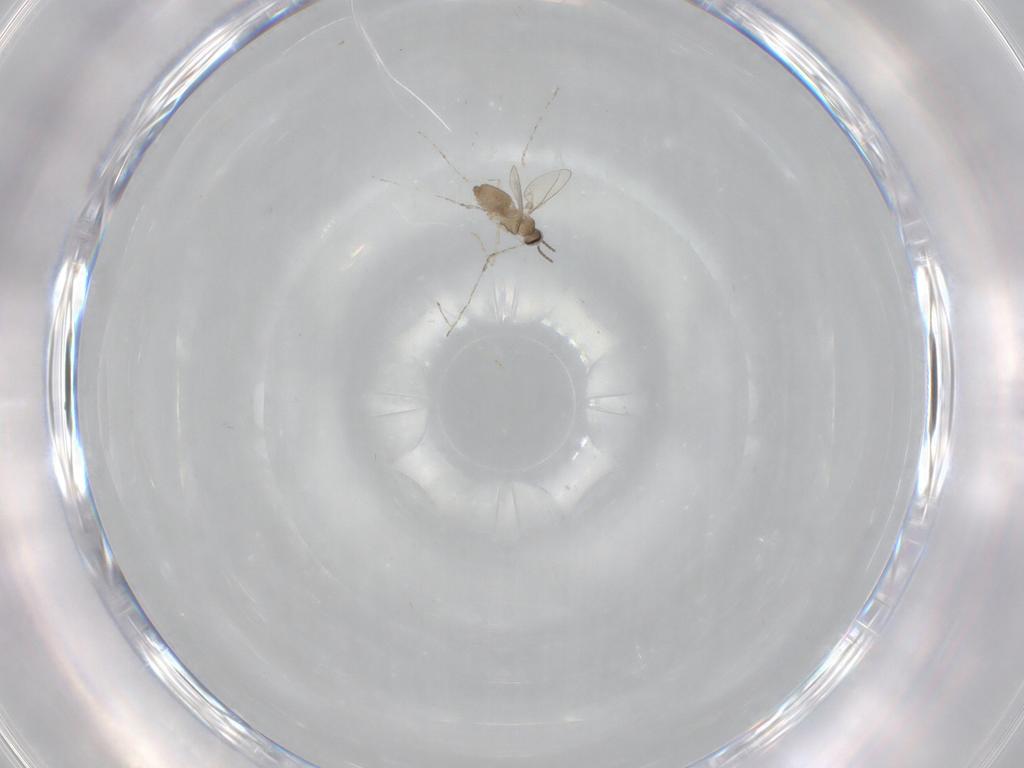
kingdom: Animalia
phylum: Arthropoda
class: Insecta
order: Diptera
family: Cecidomyiidae
